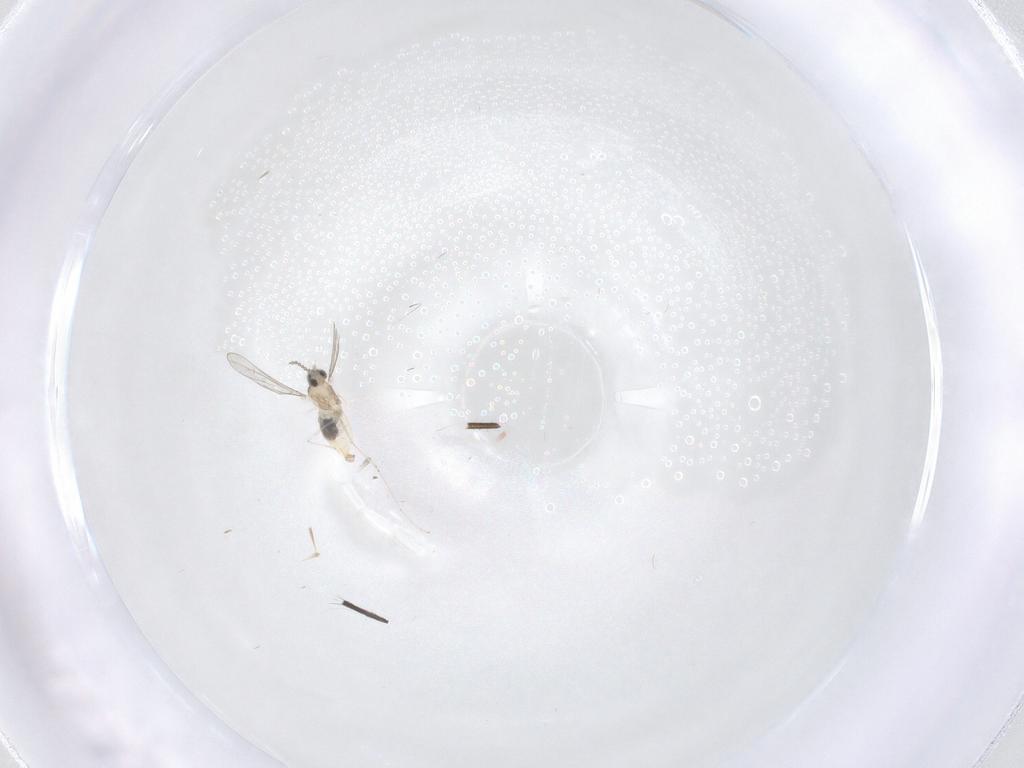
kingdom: Animalia
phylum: Arthropoda
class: Insecta
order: Diptera
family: Cecidomyiidae
